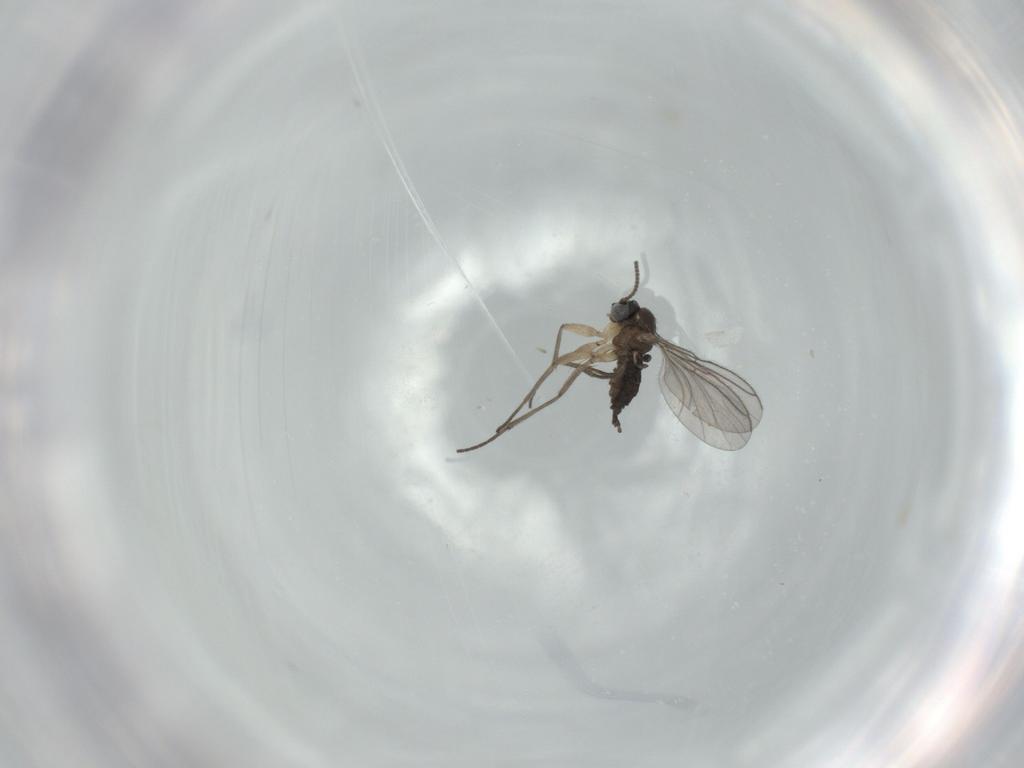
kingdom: Animalia
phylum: Arthropoda
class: Insecta
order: Diptera
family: Sciaridae
